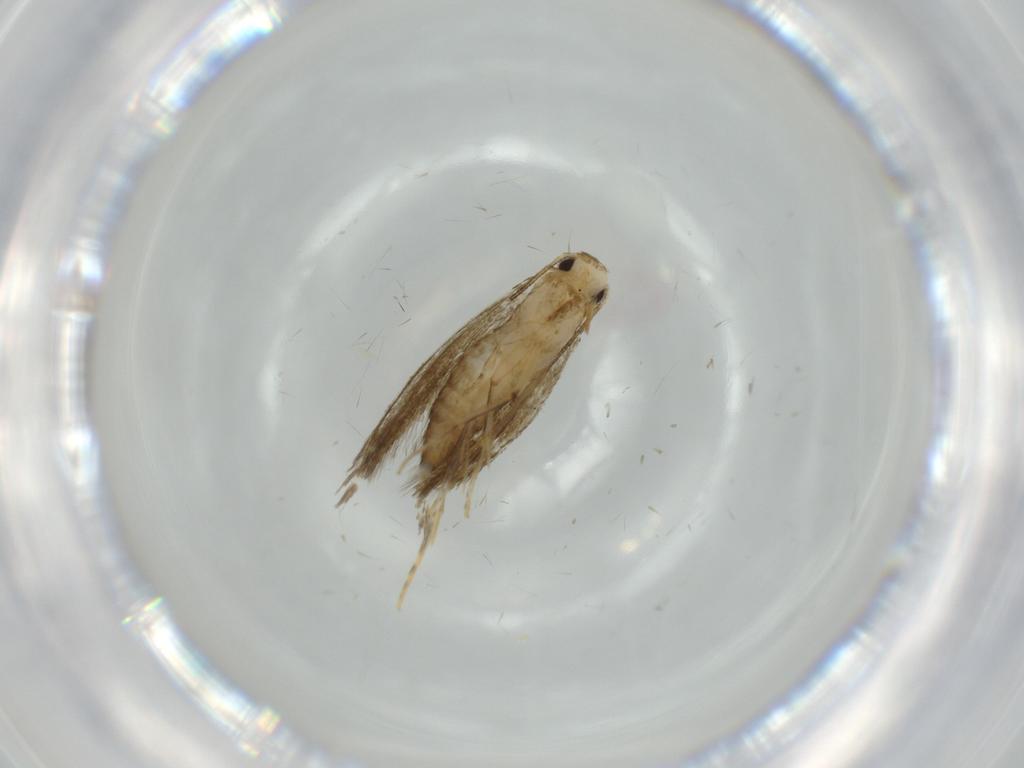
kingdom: Animalia
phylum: Arthropoda
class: Insecta
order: Lepidoptera
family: Tineidae
